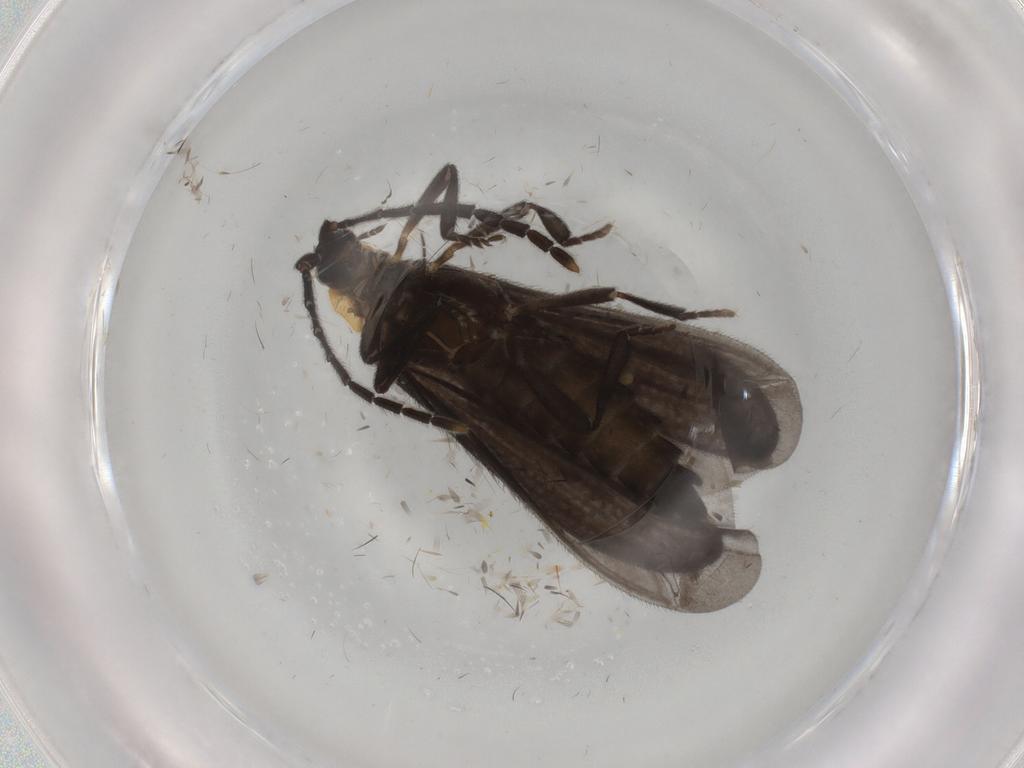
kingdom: Animalia
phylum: Arthropoda
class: Insecta
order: Coleoptera
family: Lycidae
